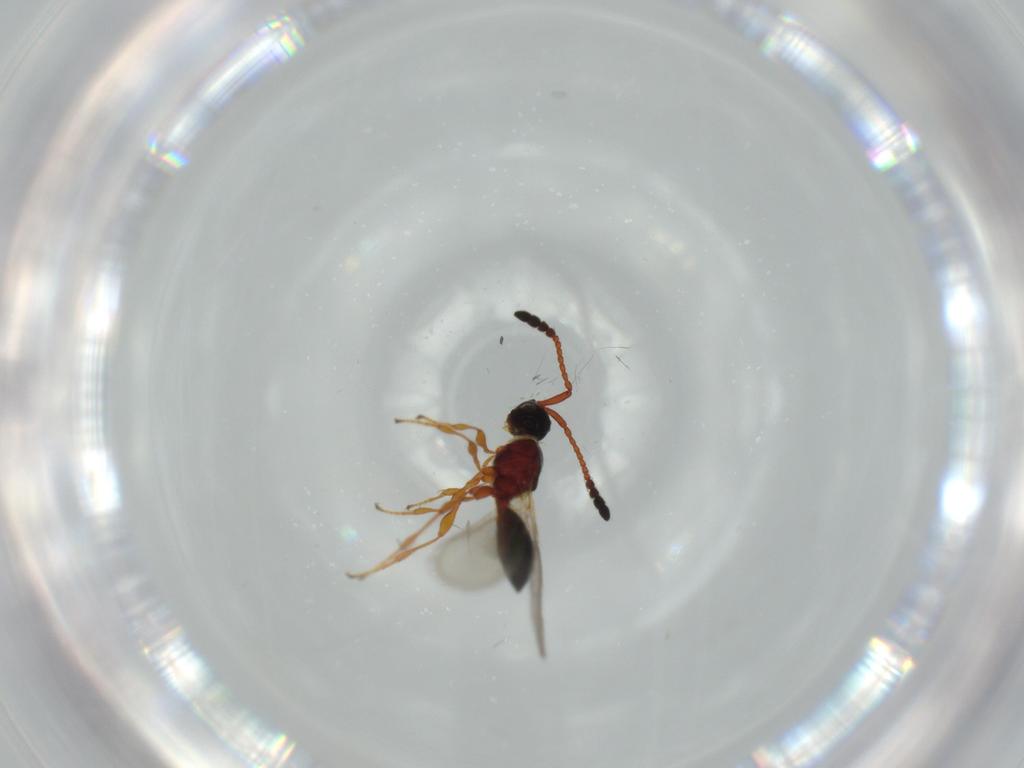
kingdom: Animalia
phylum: Arthropoda
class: Insecta
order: Hymenoptera
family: Diapriidae
